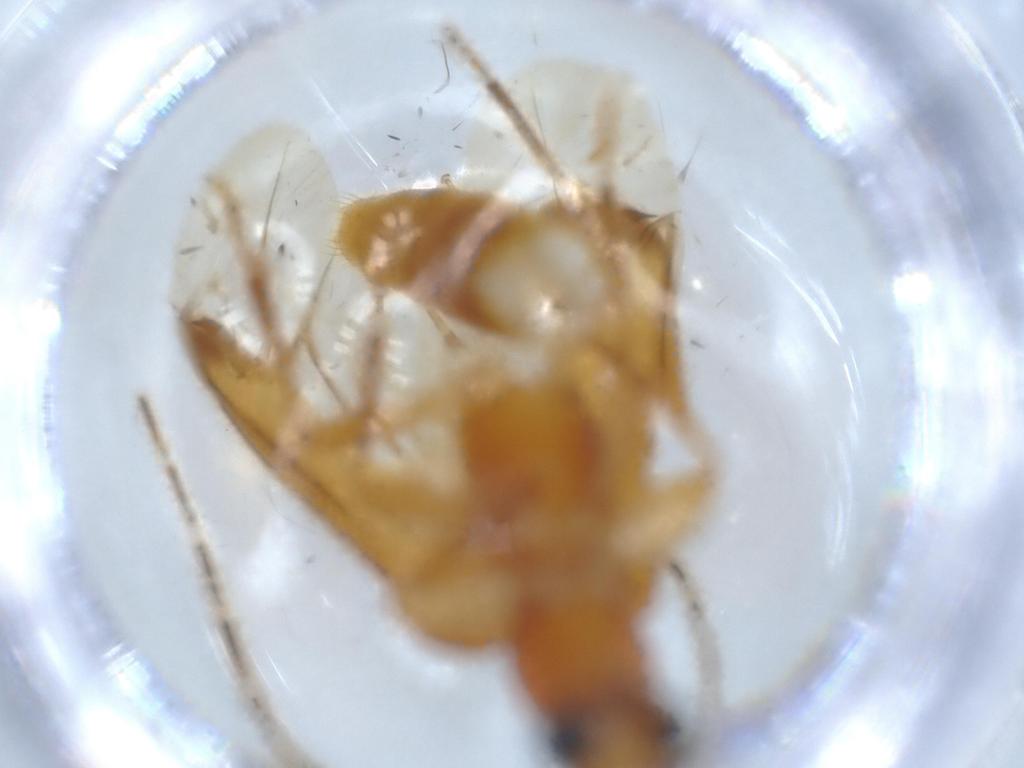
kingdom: Animalia
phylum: Arthropoda
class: Insecta
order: Coleoptera
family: Cerambycidae
